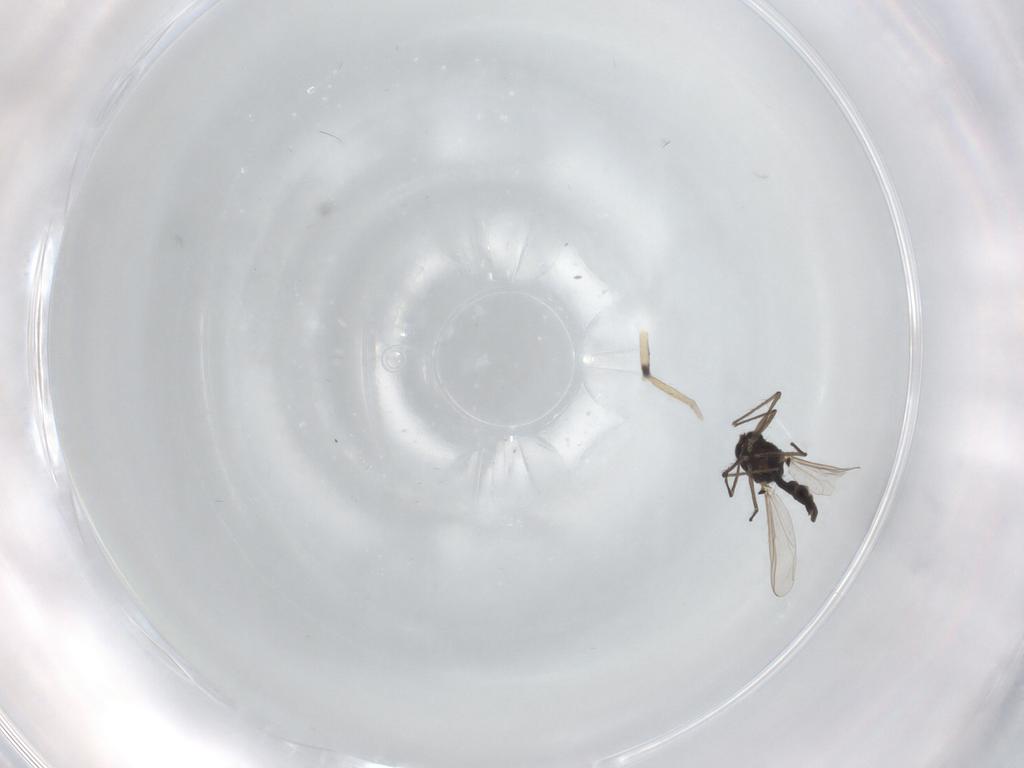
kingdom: Animalia
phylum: Arthropoda
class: Insecta
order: Diptera
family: Chironomidae
